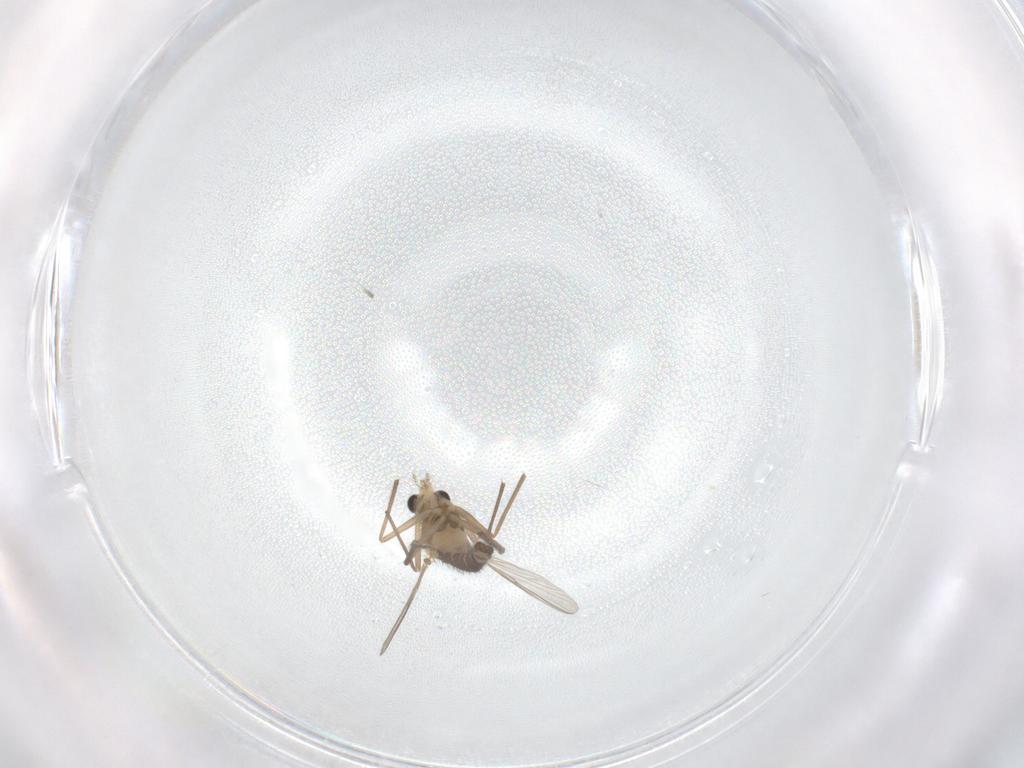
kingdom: Animalia
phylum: Arthropoda
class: Insecta
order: Diptera
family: Chironomidae
